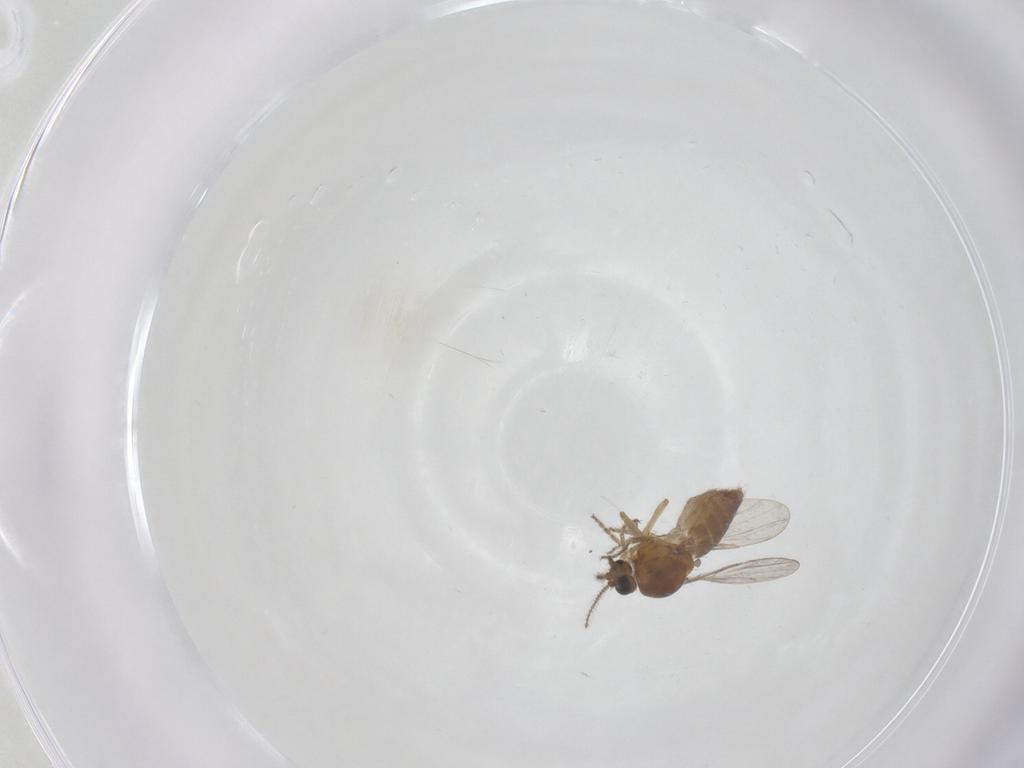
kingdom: Animalia
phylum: Arthropoda
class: Insecta
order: Diptera
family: Ceratopogonidae
